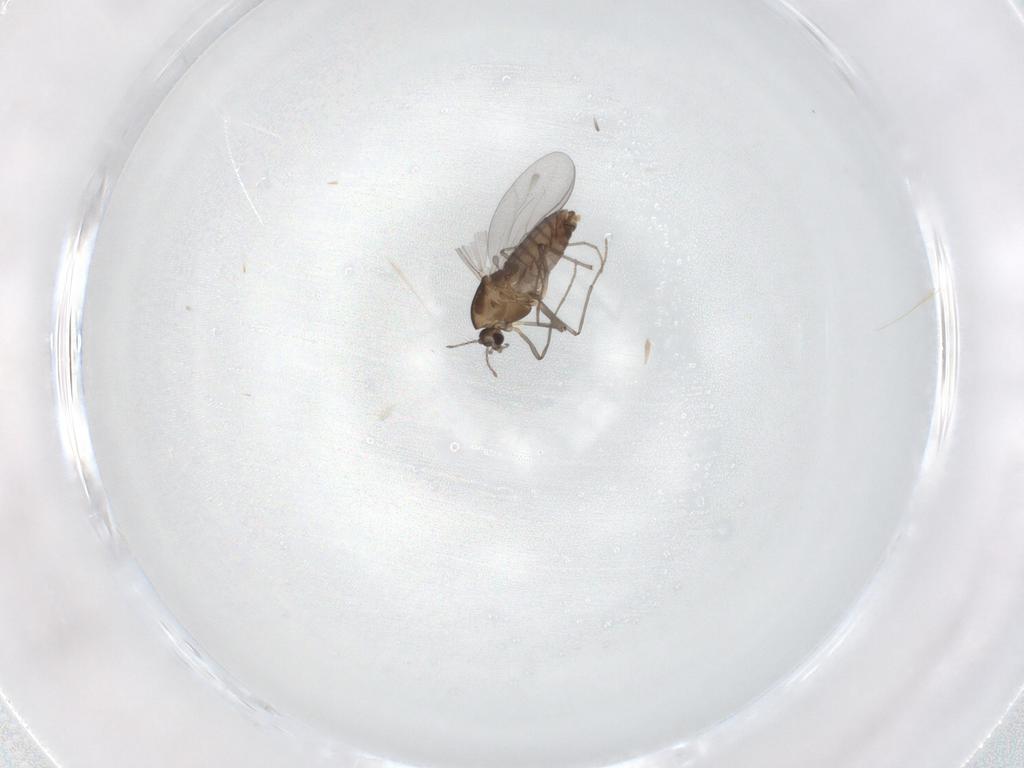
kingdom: Animalia
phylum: Arthropoda
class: Insecta
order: Diptera
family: Chironomidae
